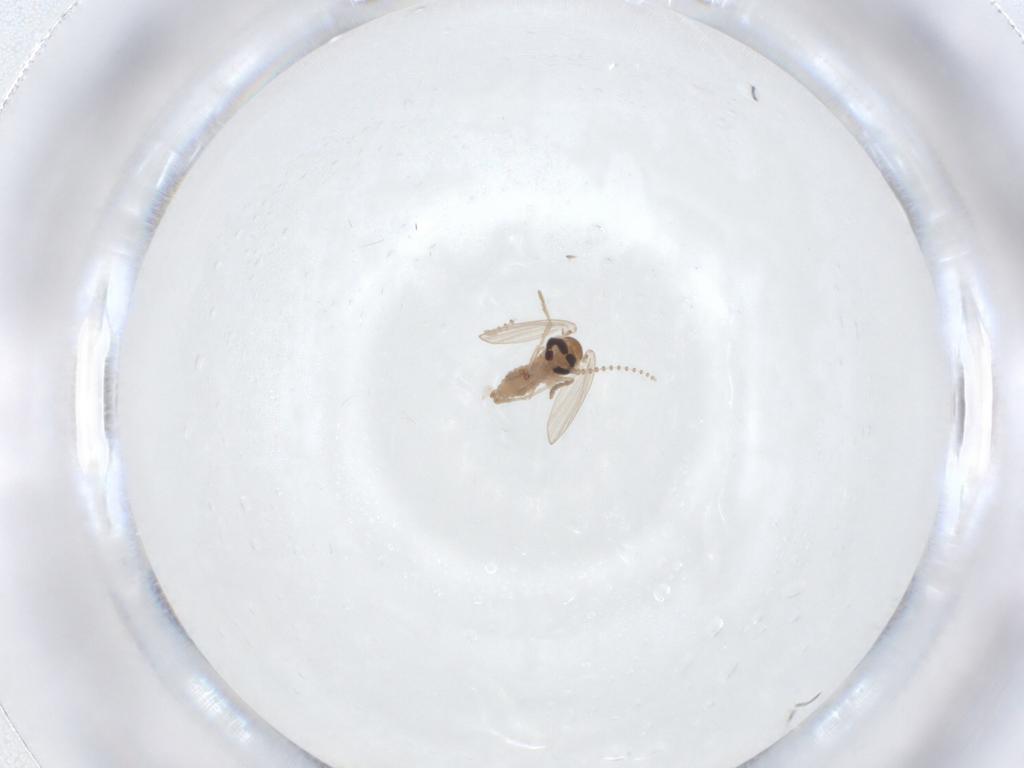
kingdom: Animalia
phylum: Arthropoda
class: Insecta
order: Diptera
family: Psychodidae
